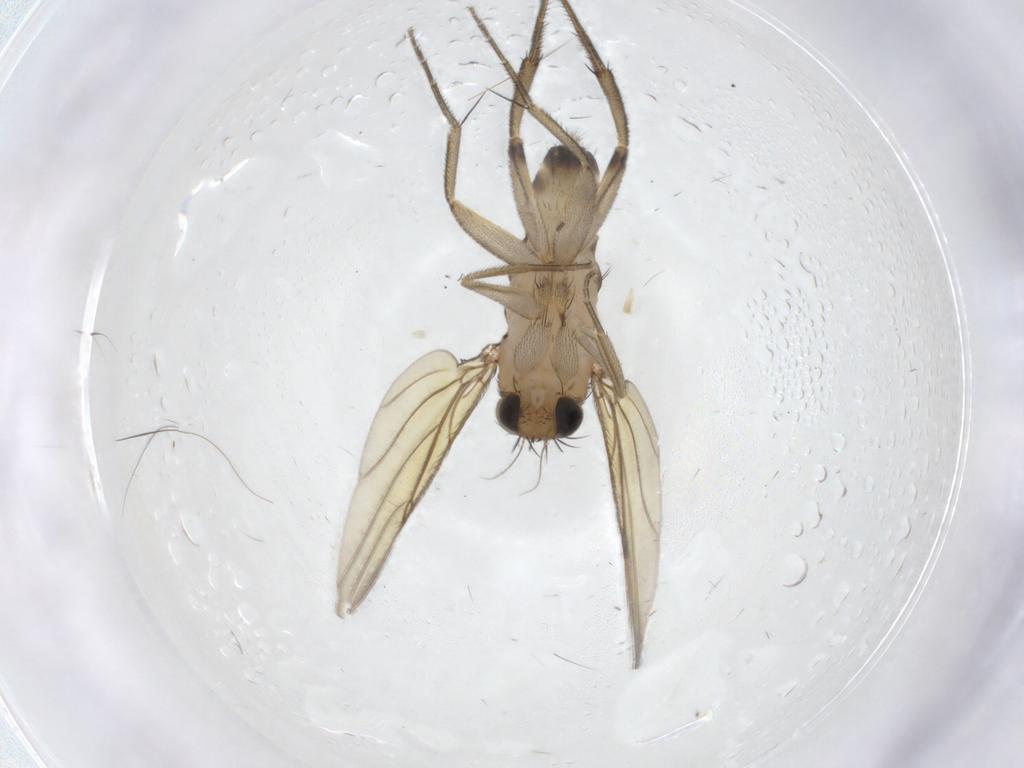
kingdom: Animalia
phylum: Arthropoda
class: Insecta
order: Diptera
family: Phoridae
